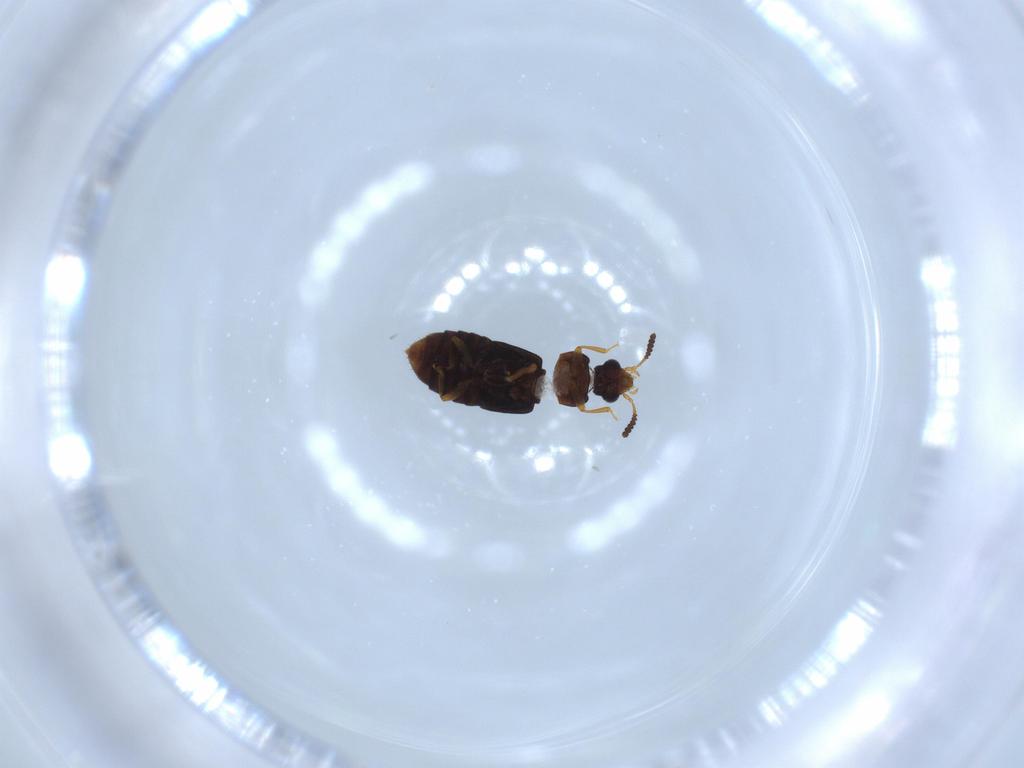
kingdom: Animalia
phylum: Arthropoda
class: Insecta
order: Coleoptera
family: Staphylinidae
